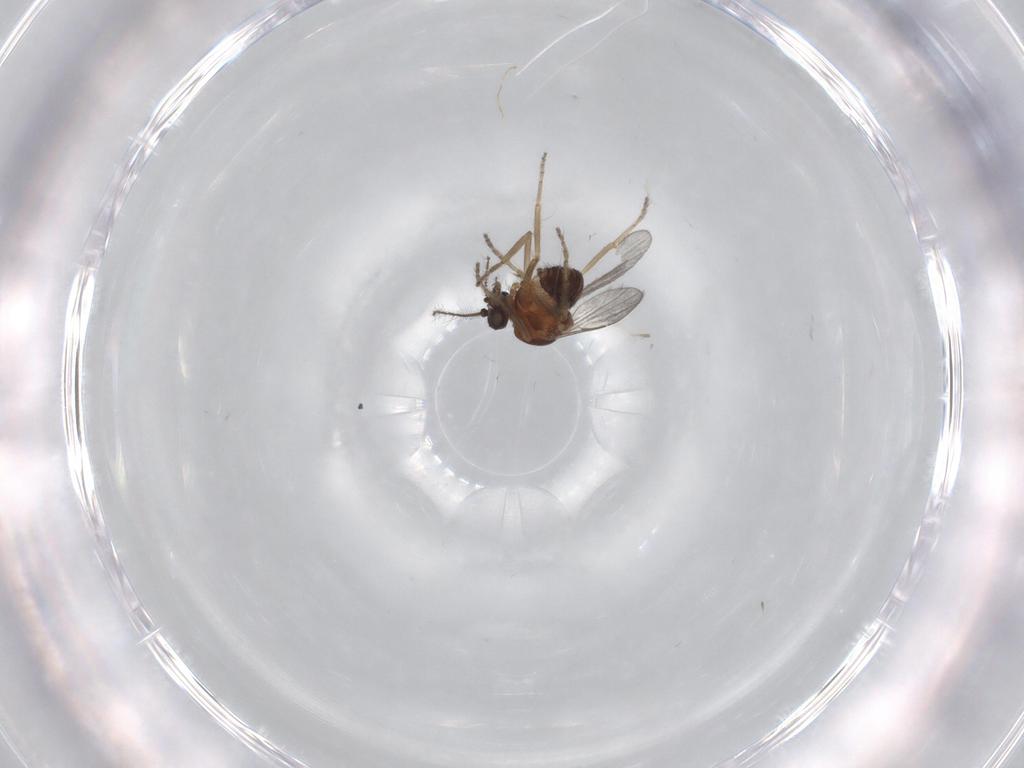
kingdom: Animalia
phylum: Arthropoda
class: Insecta
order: Diptera
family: Ceratopogonidae
